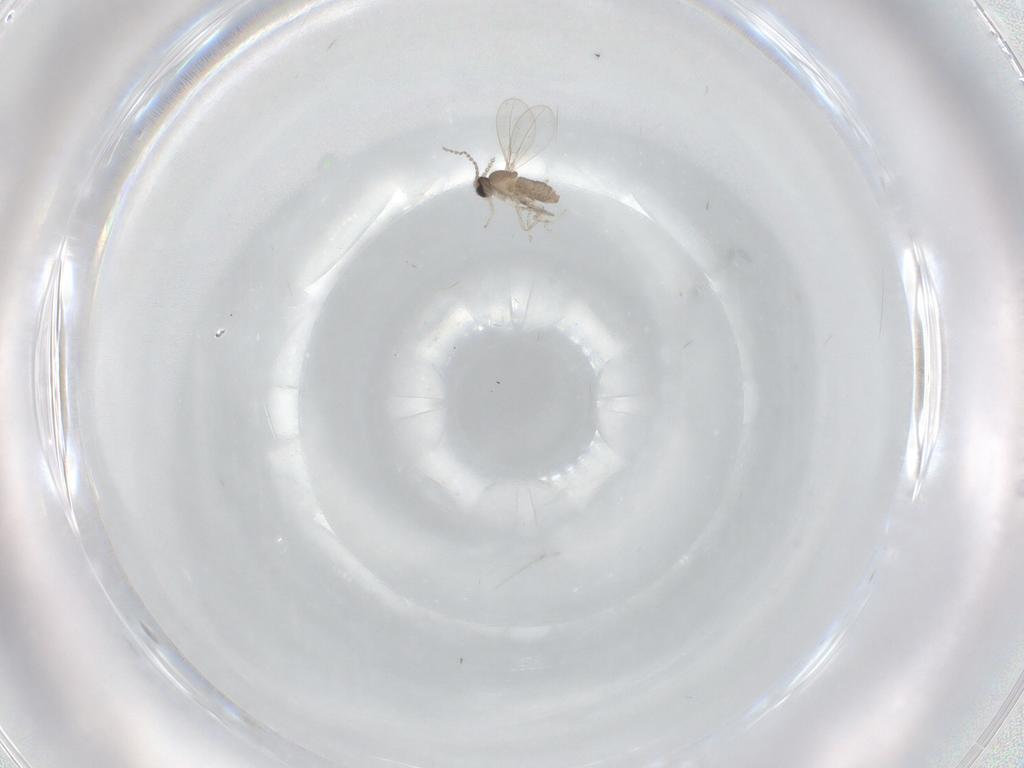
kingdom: Animalia
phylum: Arthropoda
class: Insecta
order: Diptera
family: Cecidomyiidae
